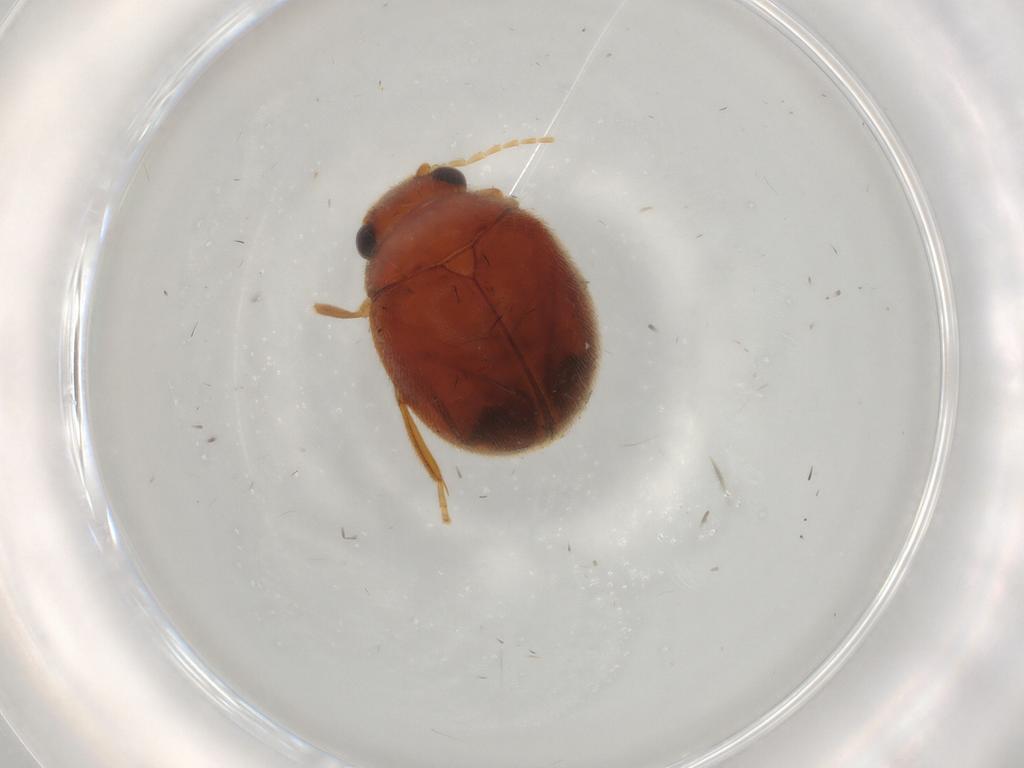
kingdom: Animalia
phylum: Arthropoda
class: Insecta
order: Coleoptera
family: Scirtidae
